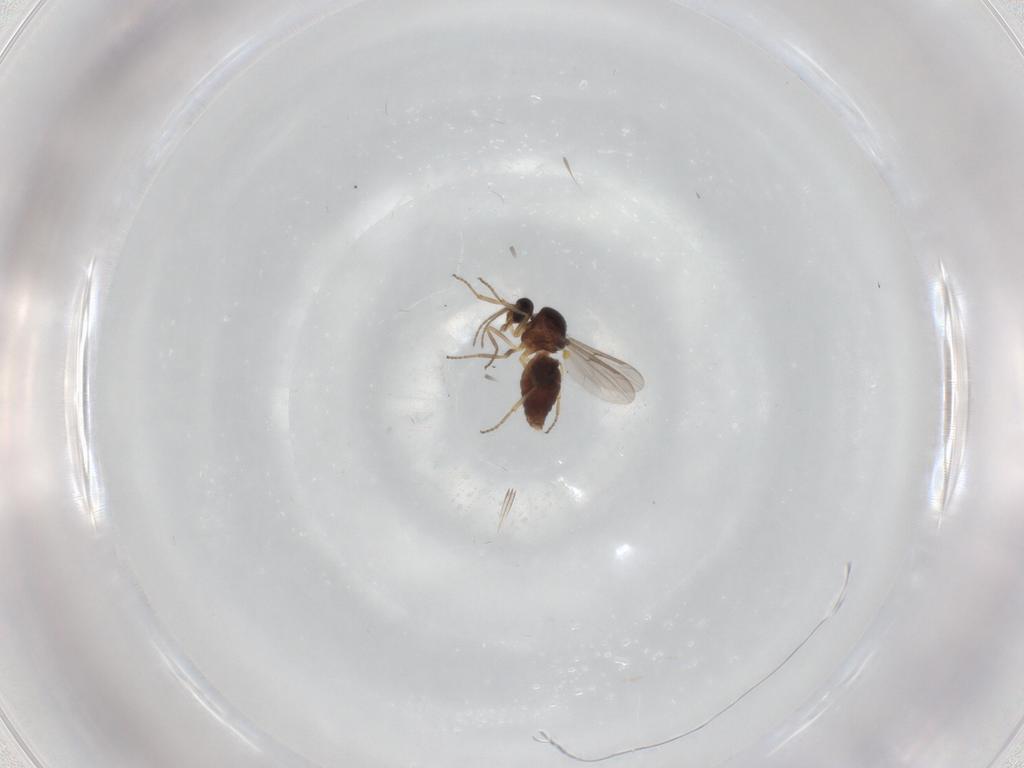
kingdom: Animalia
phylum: Arthropoda
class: Insecta
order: Diptera
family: Ceratopogonidae
